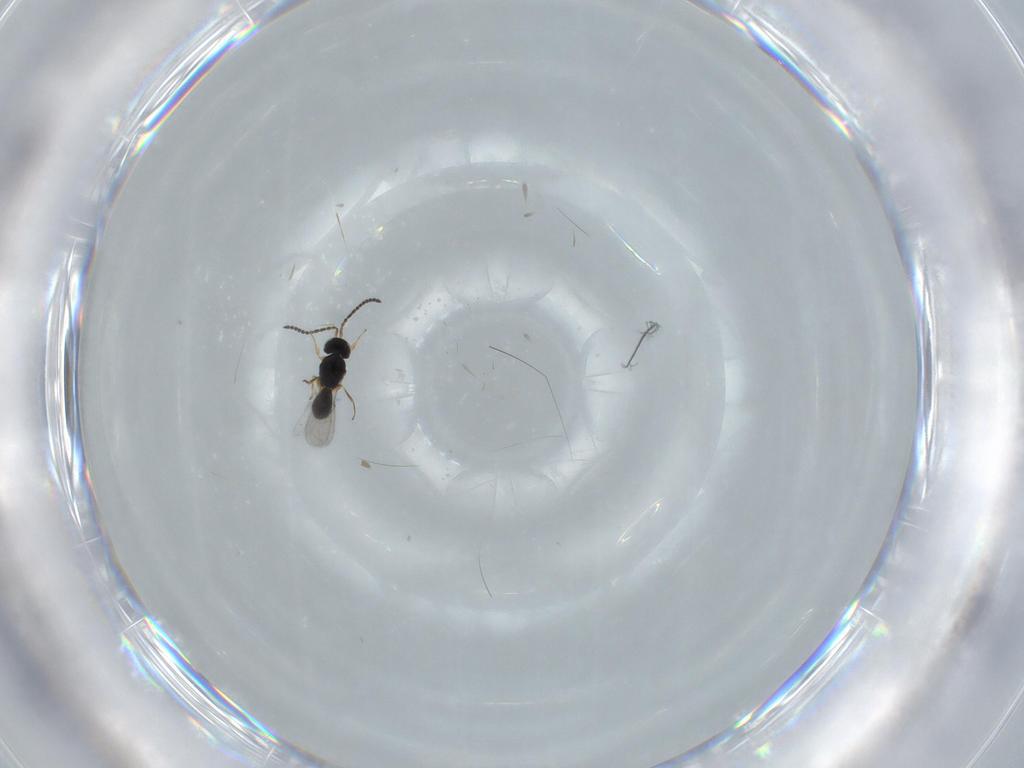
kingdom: Animalia
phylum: Arthropoda
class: Insecta
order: Hymenoptera
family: Scelionidae
